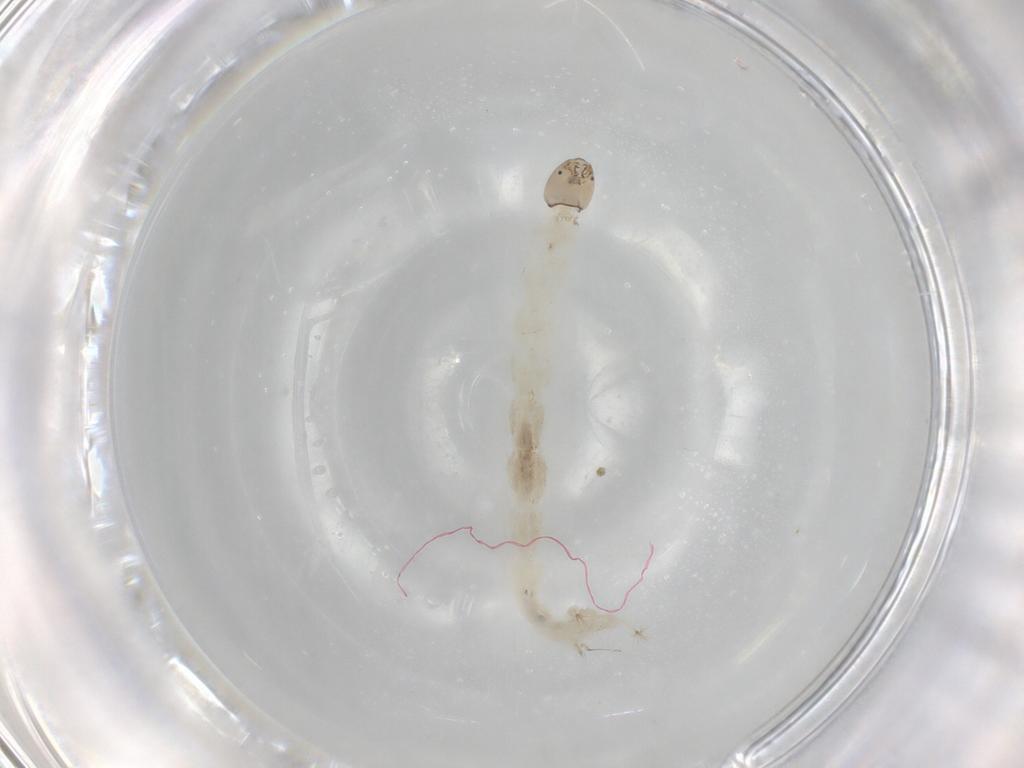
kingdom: Animalia
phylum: Arthropoda
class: Insecta
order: Diptera
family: Chironomidae
